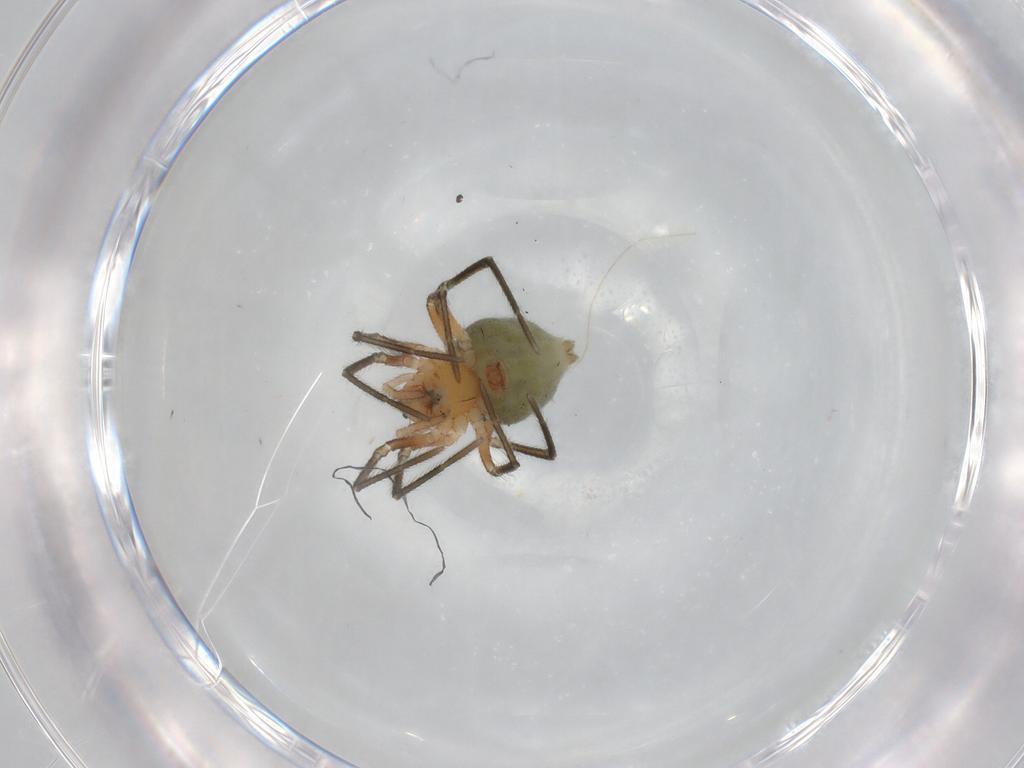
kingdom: Animalia
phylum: Arthropoda
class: Arachnida
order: Araneae
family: Linyphiidae
